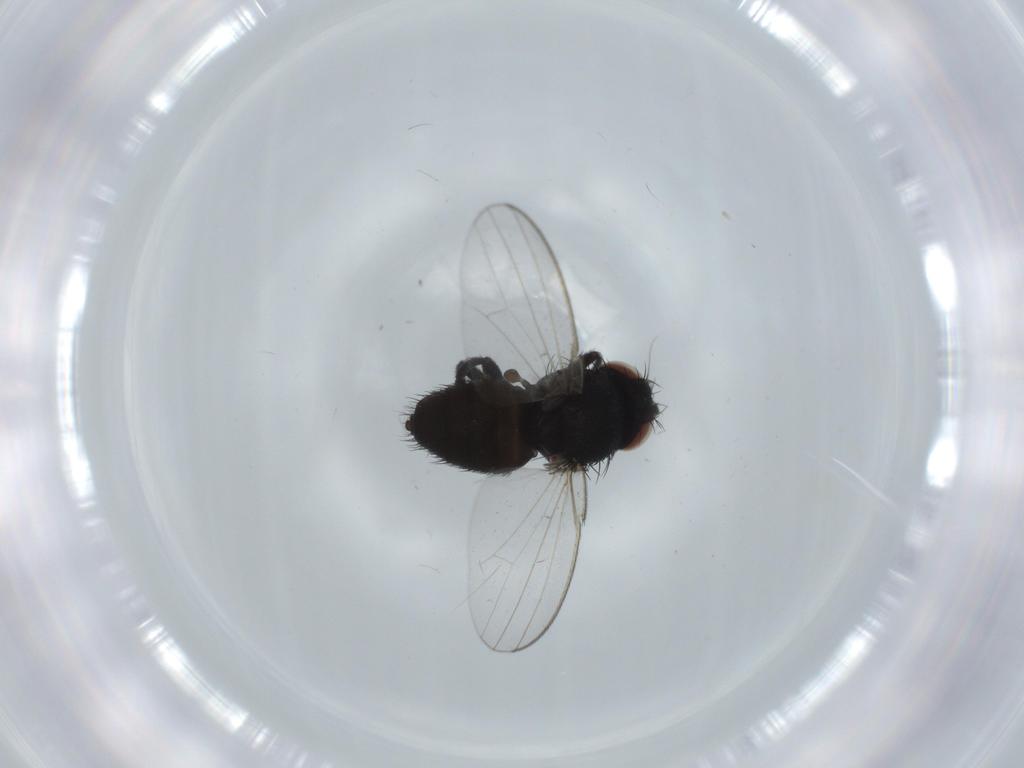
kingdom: Animalia
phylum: Arthropoda
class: Insecta
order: Diptera
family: Milichiidae
